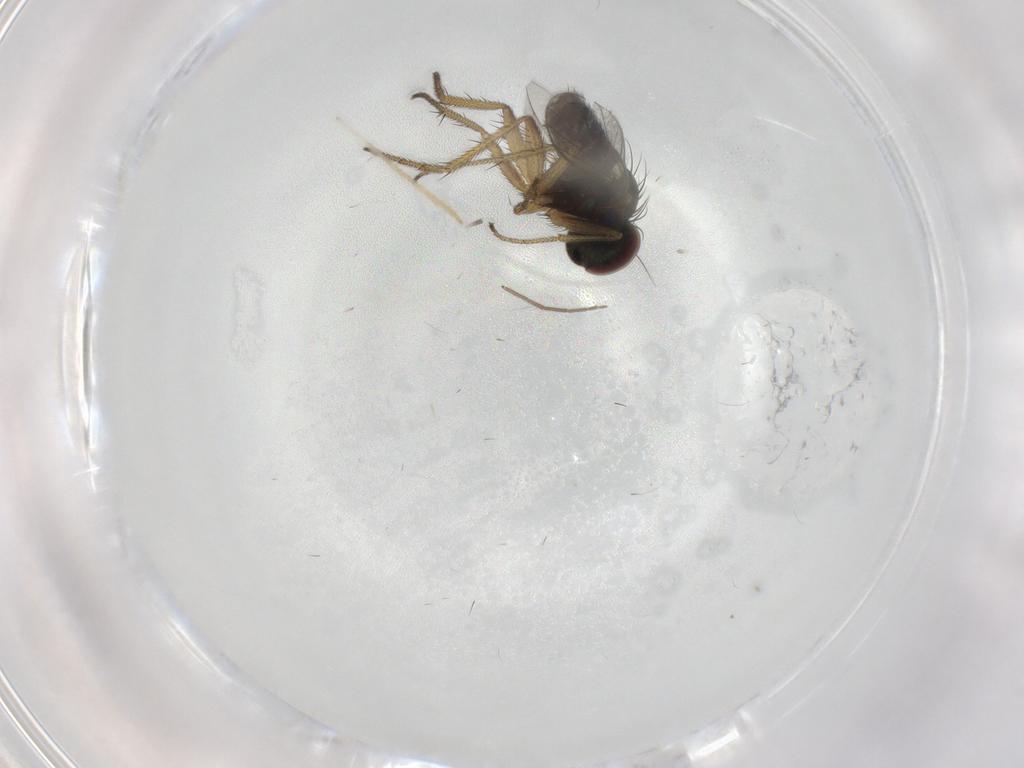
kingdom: Animalia
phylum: Arthropoda
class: Insecta
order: Diptera
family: Chironomidae
